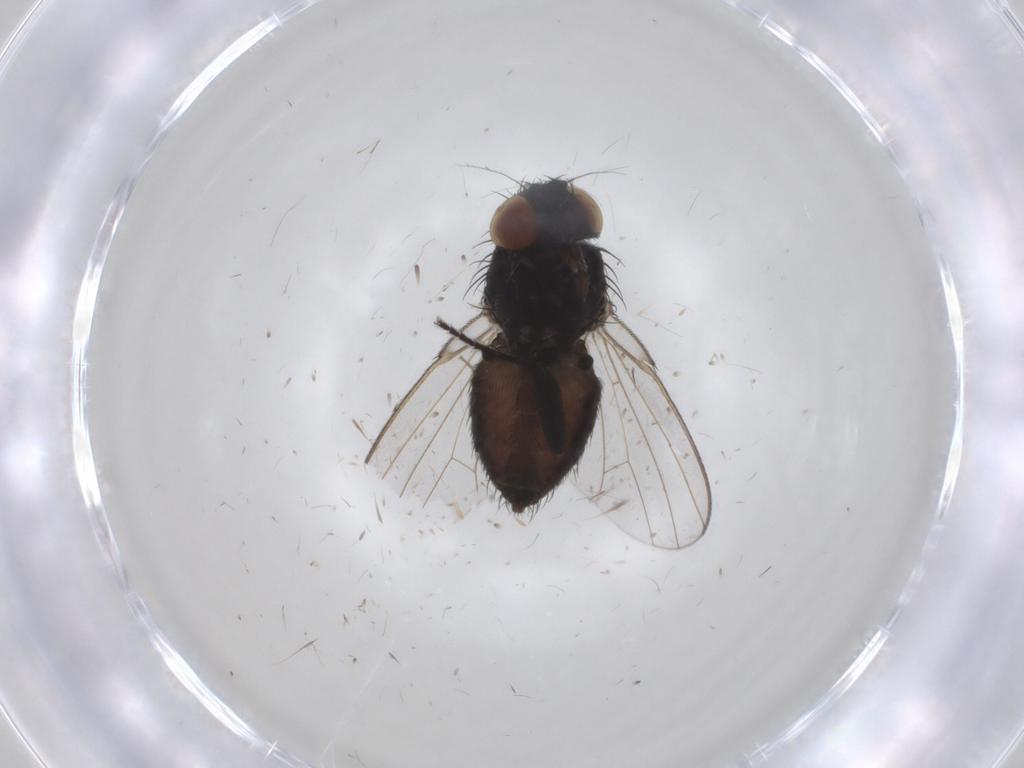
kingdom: Animalia
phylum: Arthropoda
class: Insecta
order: Diptera
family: Milichiidae
